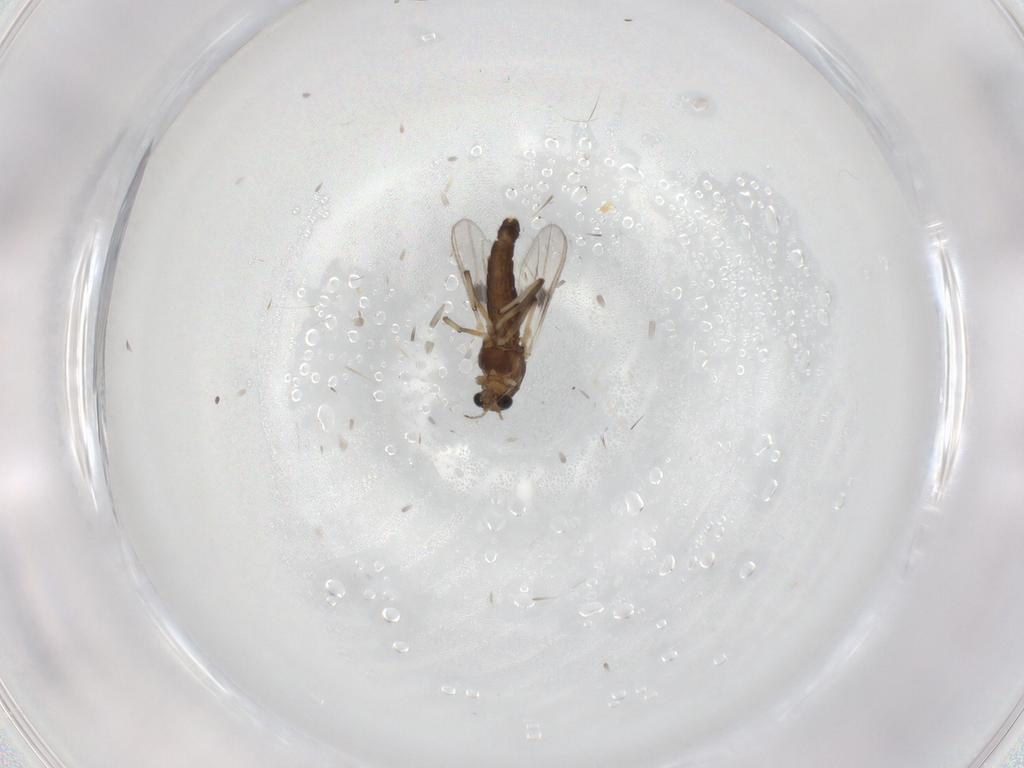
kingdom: Animalia
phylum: Arthropoda
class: Insecta
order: Diptera
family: Chironomidae
